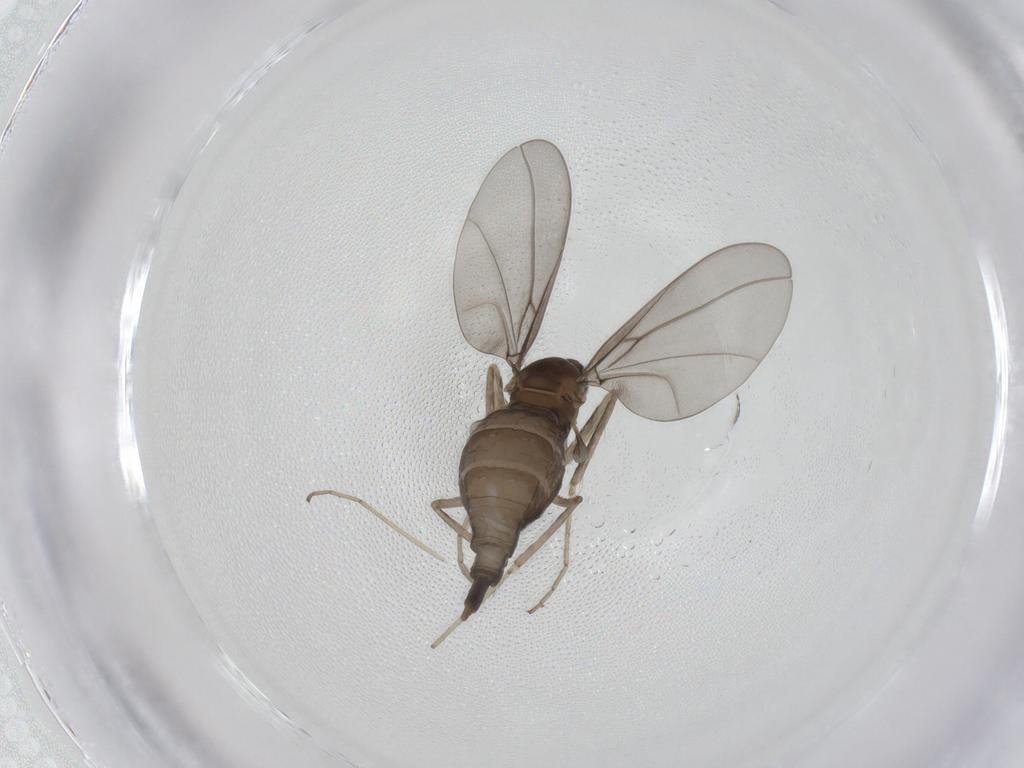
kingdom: Animalia
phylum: Arthropoda
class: Insecta
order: Diptera
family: Cecidomyiidae
